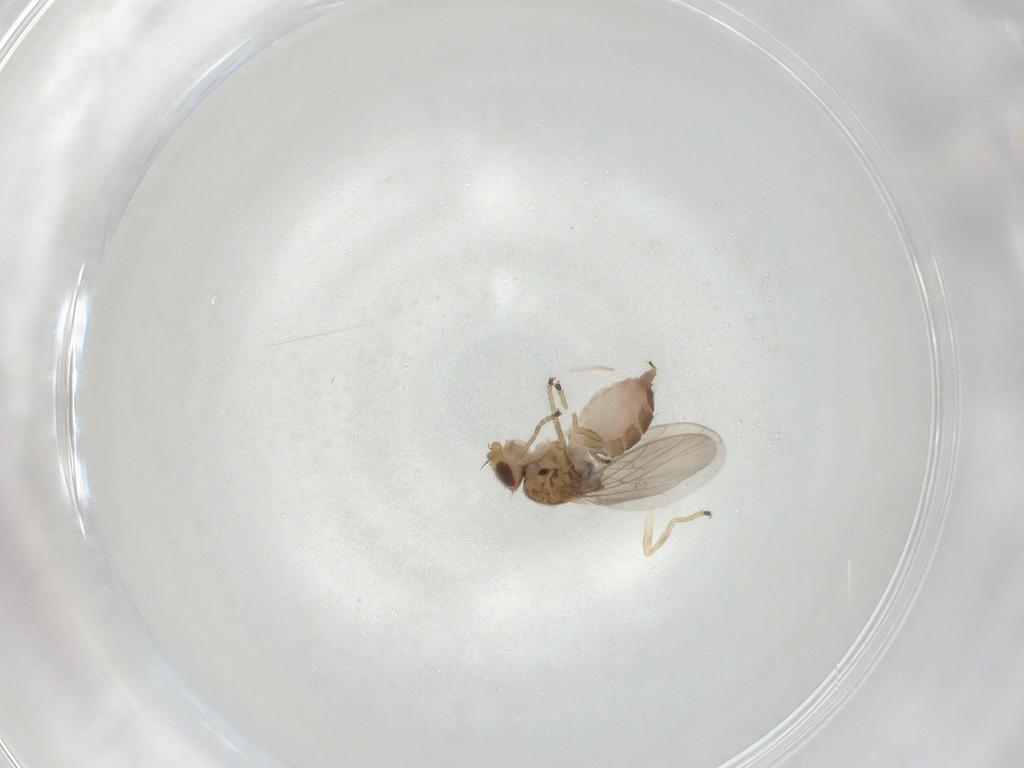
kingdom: Animalia
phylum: Arthropoda
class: Insecta
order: Diptera
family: Chloropidae
